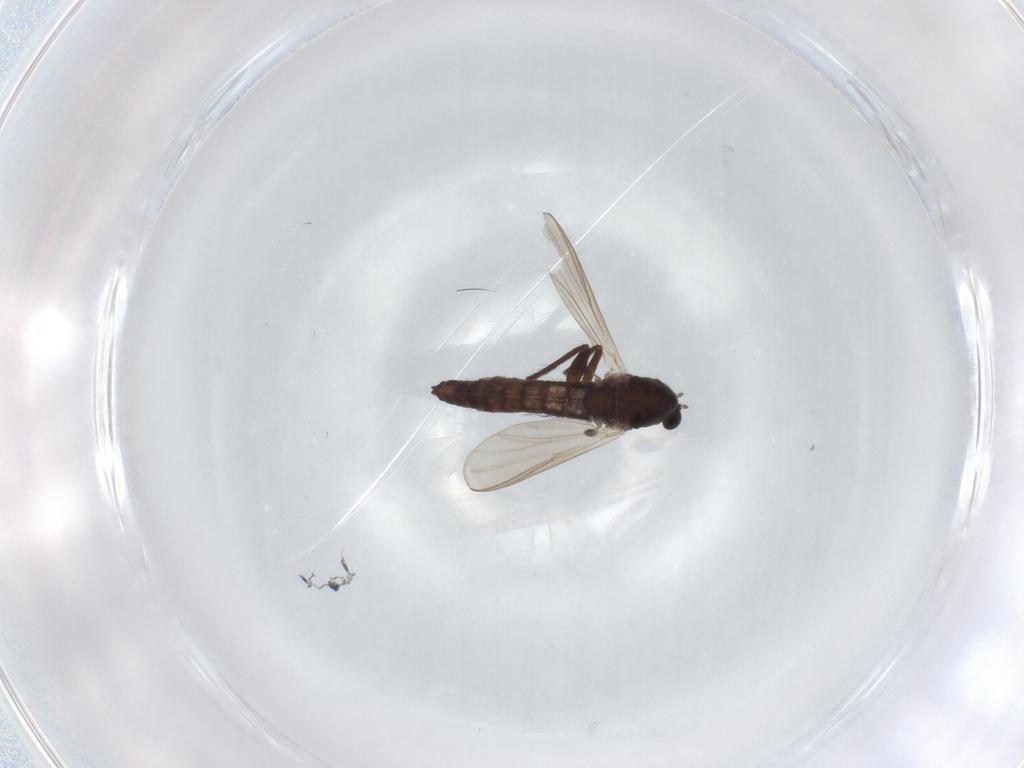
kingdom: Animalia
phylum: Arthropoda
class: Insecta
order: Diptera
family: Chironomidae
